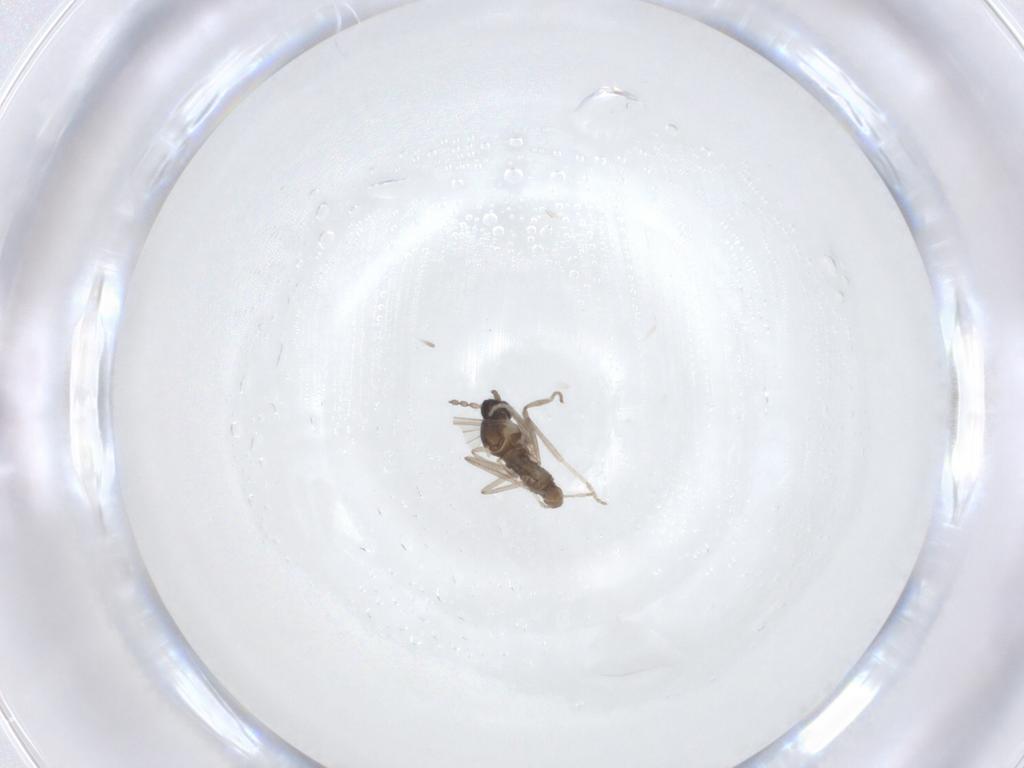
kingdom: Animalia
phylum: Arthropoda
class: Insecta
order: Diptera
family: Cecidomyiidae
